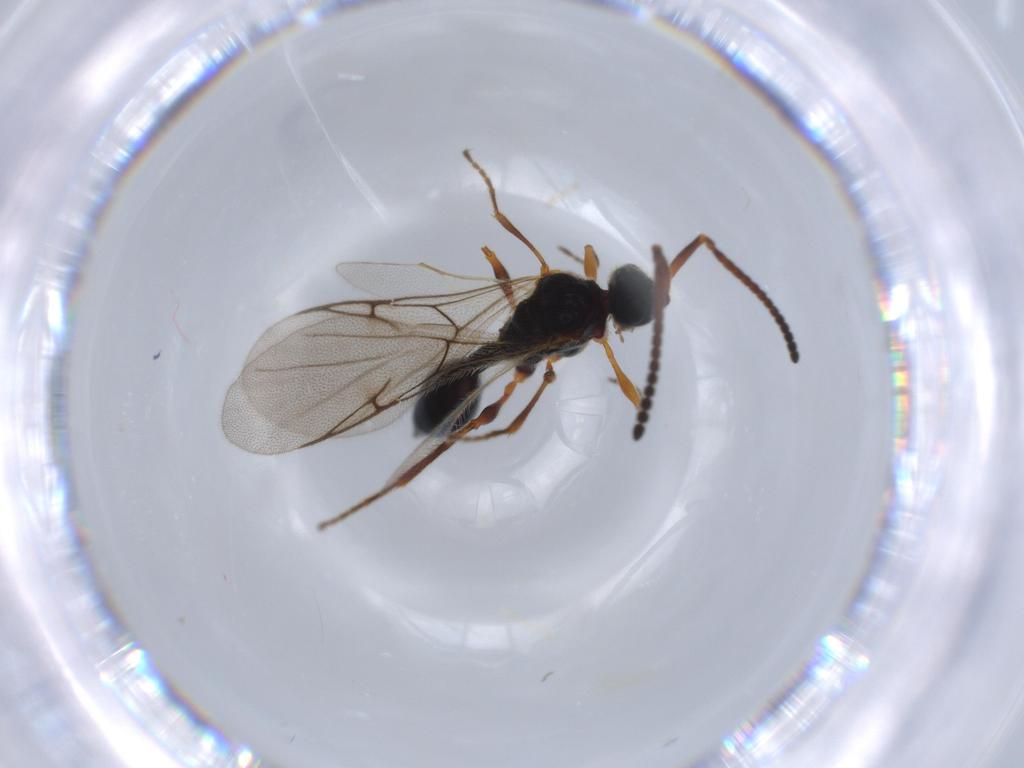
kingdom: Animalia
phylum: Arthropoda
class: Insecta
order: Hymenoptera
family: Diapriidae
